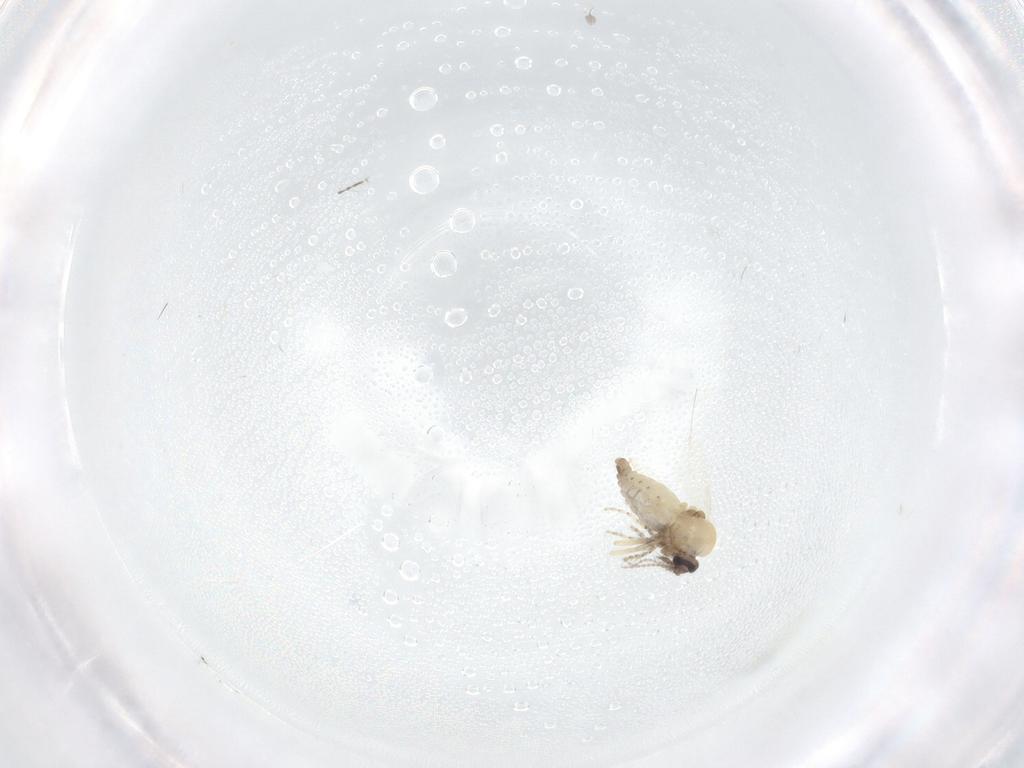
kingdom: Animalia
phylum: Arthropoda
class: Insecta
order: Diptera
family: Ceratopogonidae
